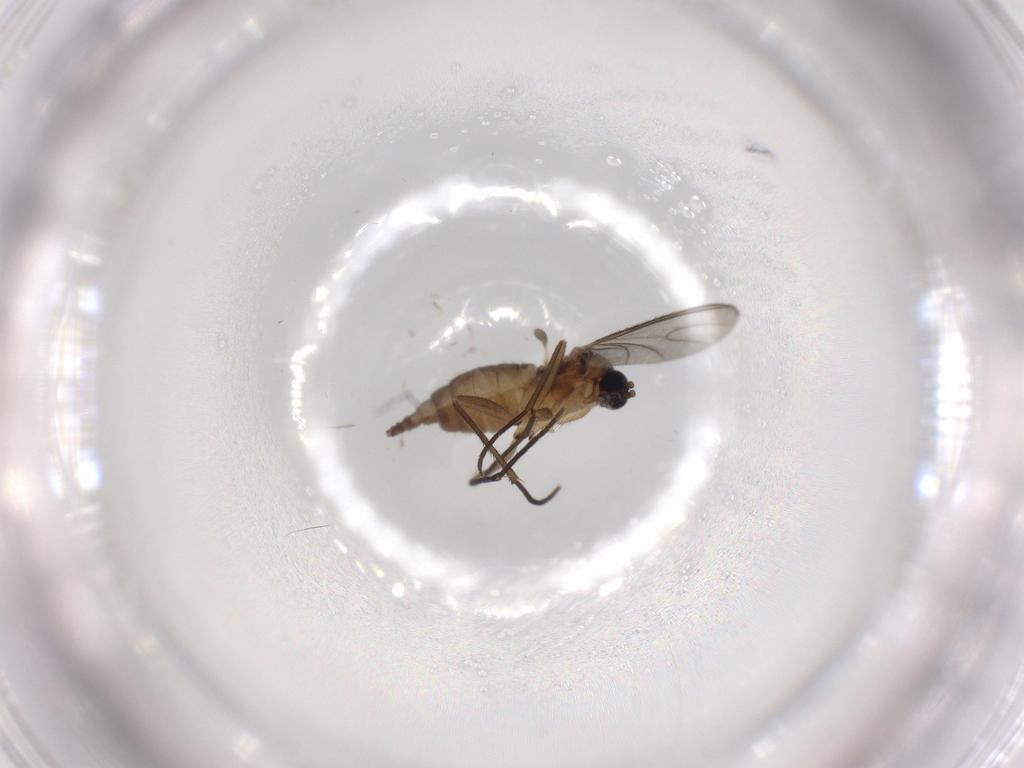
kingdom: Animalia
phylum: Arthropoda
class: Insecta
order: Diptera
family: Sciaridae
